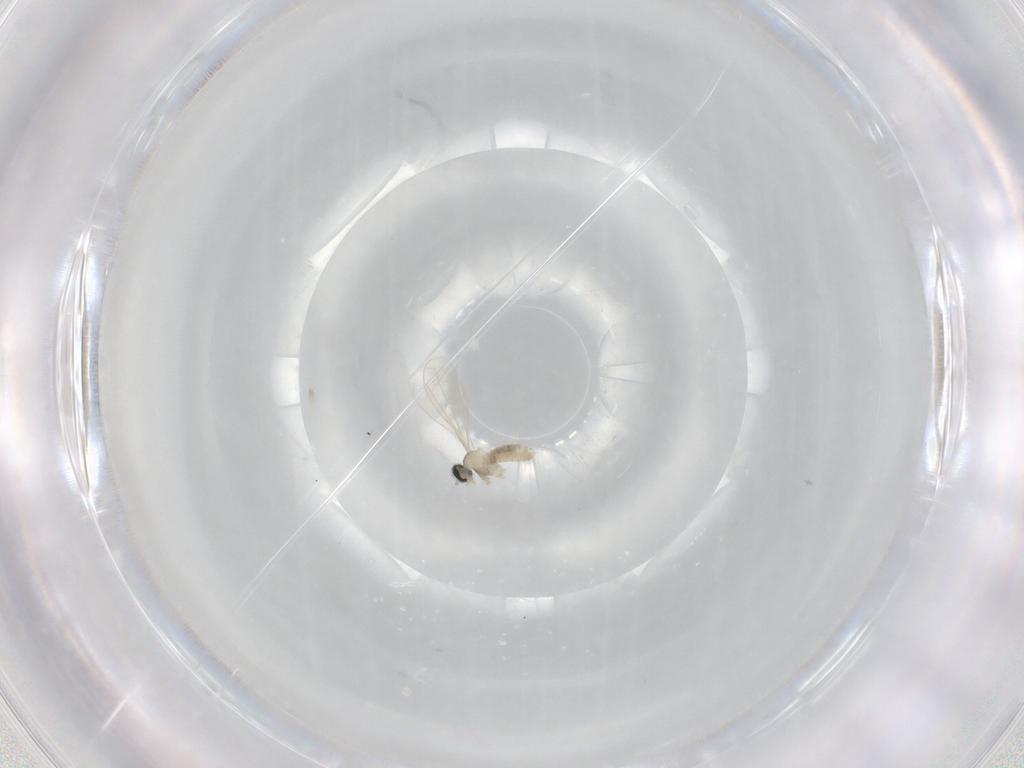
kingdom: Animalia
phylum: Arthropoda
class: Insecta
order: Diptera
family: Cecidomyiidae
